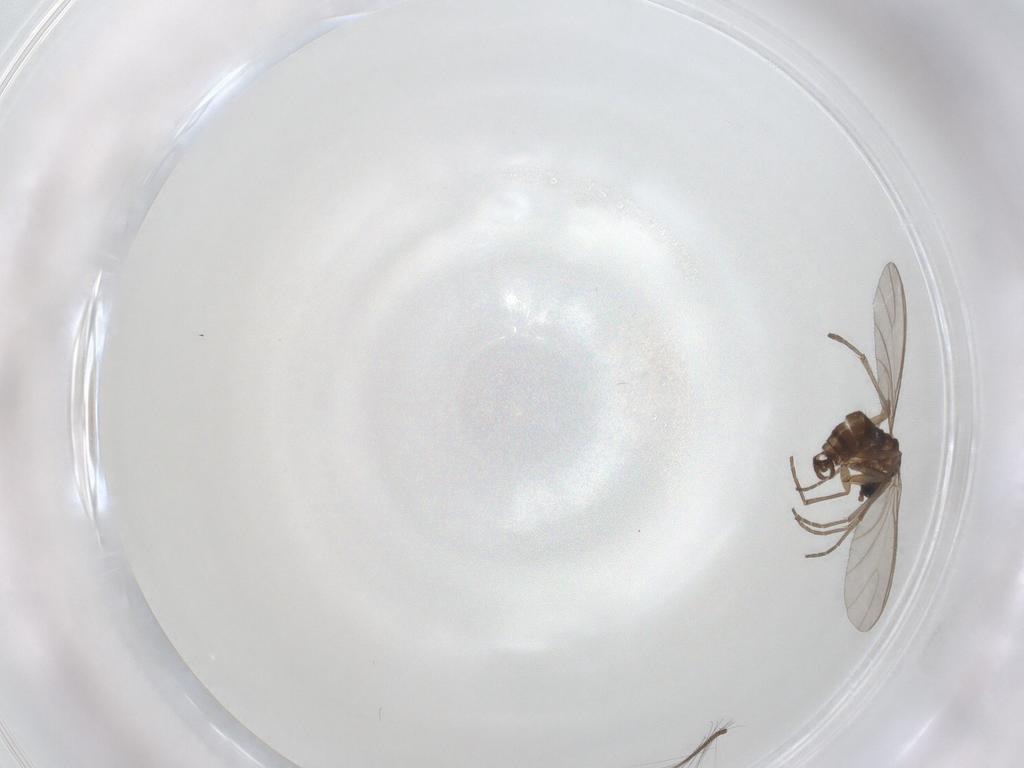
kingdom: Animalia
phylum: Arthropoda
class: Insecta
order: Diptera
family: Sciaridae
